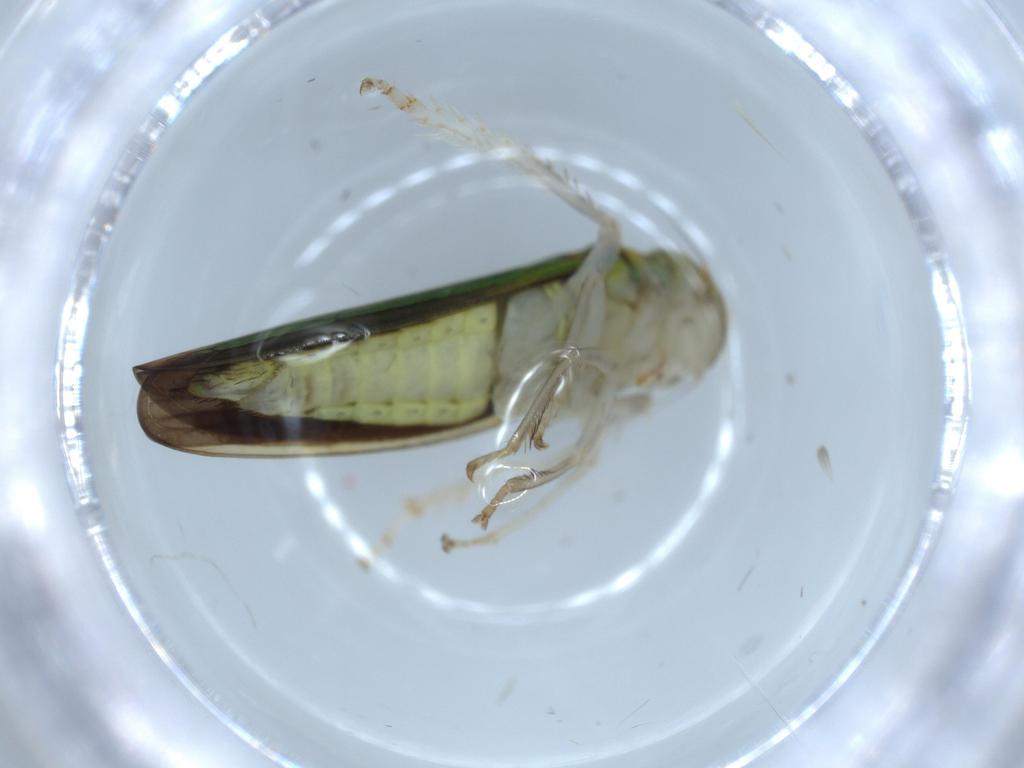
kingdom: Animalia
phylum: Arthropoda
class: Insecta
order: Hemiptera
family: Cicadellidae
